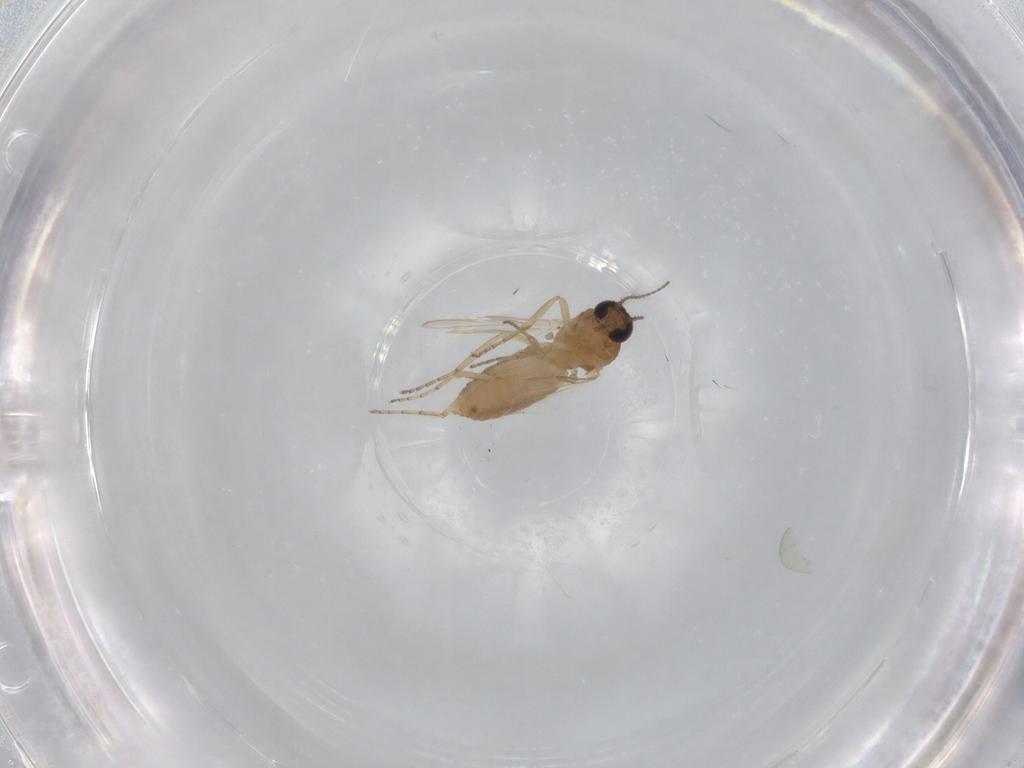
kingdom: Animalia
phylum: Arthropoda
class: Insecta
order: Diptera
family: Ceratopogonidae
